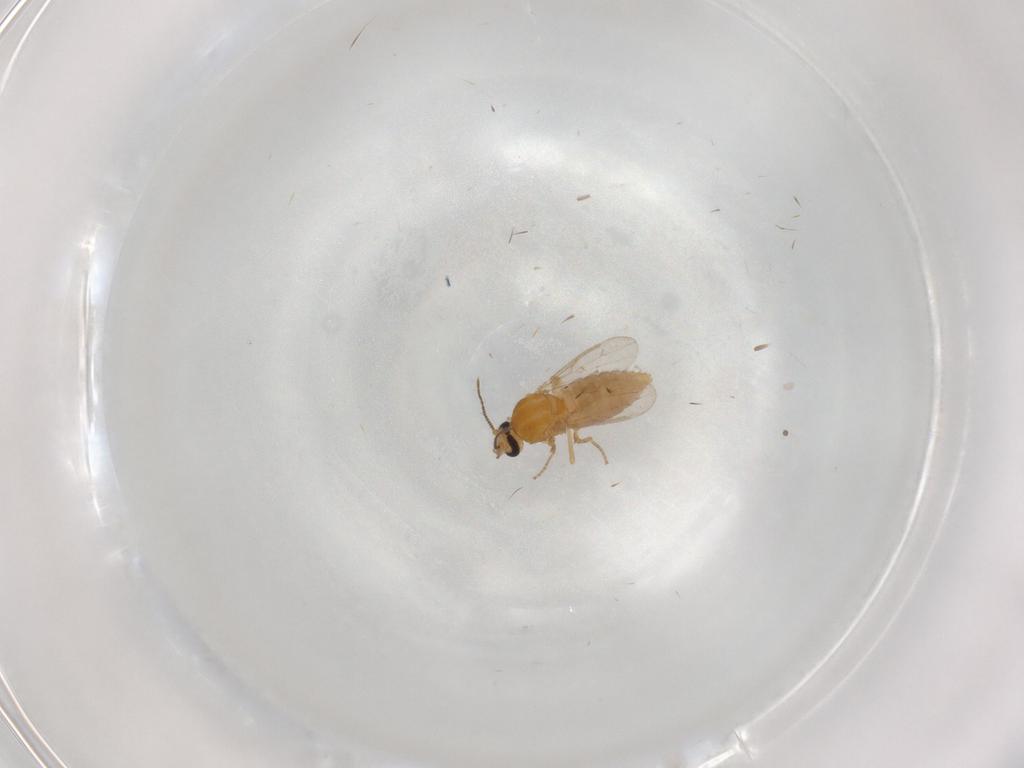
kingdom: Animalia
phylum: Arthropoda
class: Insecta
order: Diptera
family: Ceratopogonidae
